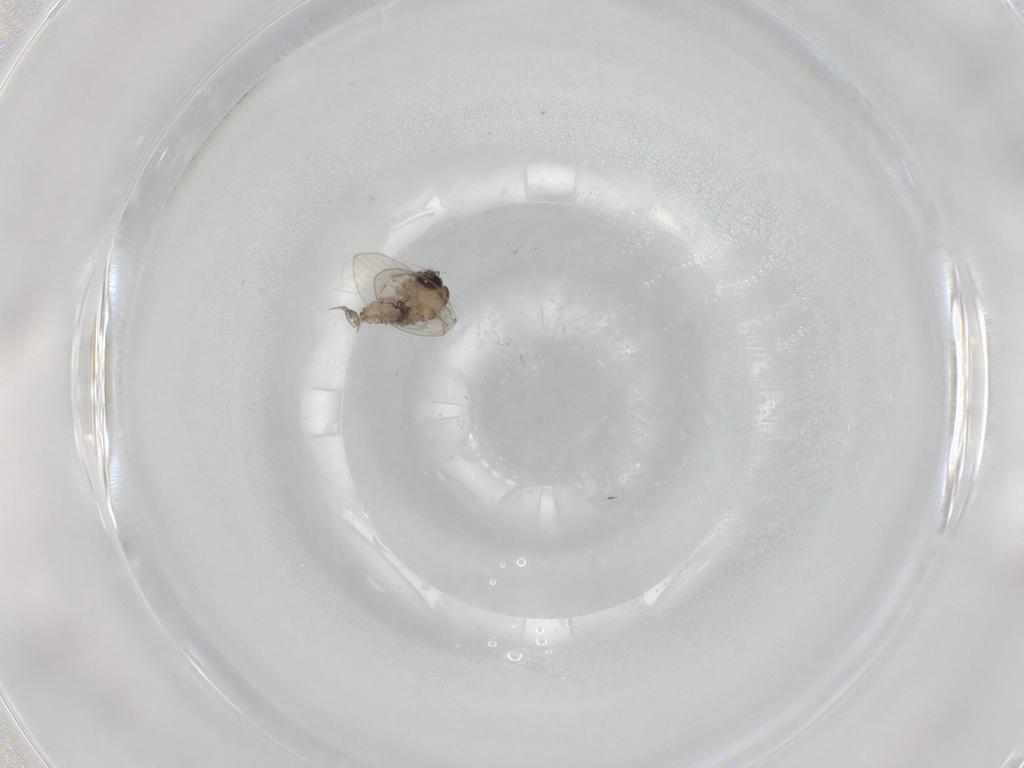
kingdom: Animalia
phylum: Arthropoda
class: Insecta
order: Diptera
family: Psychodidae
